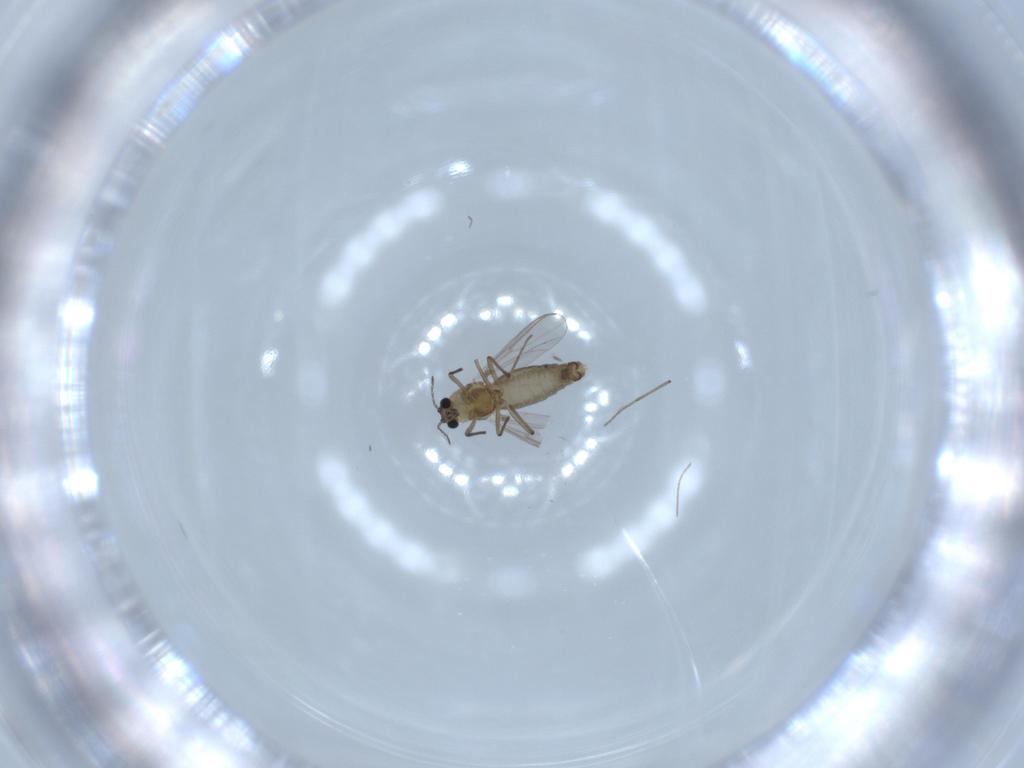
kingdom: Animalia
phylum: Arthropoda
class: Insecta
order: Diptera
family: Chironomidae
